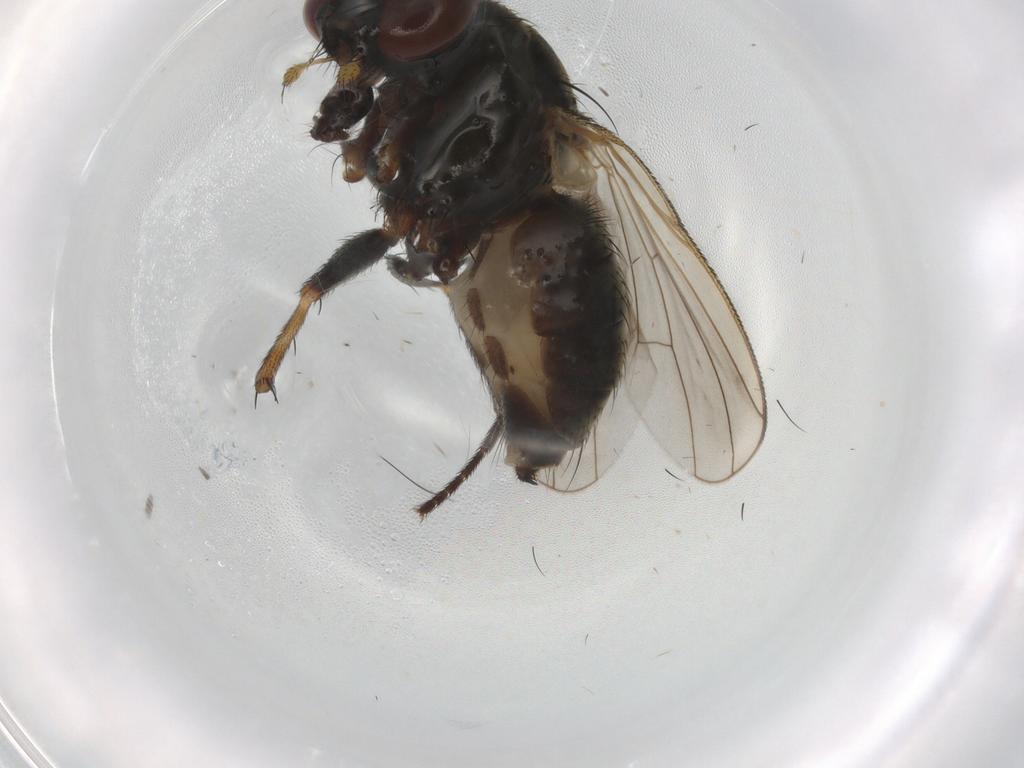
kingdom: Animalia
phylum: Arthropoda
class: Insecta
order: Diptera
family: Muscidae
